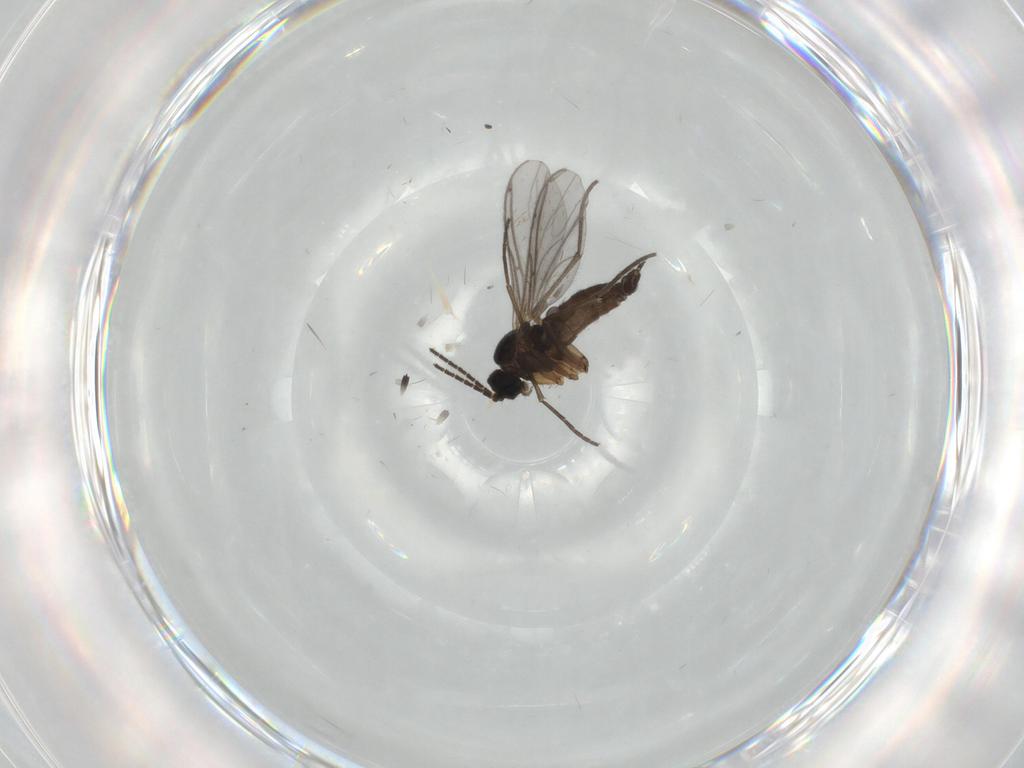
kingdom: Animalia
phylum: Arthropoda
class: Insecta
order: Diptera
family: Sciaridae
